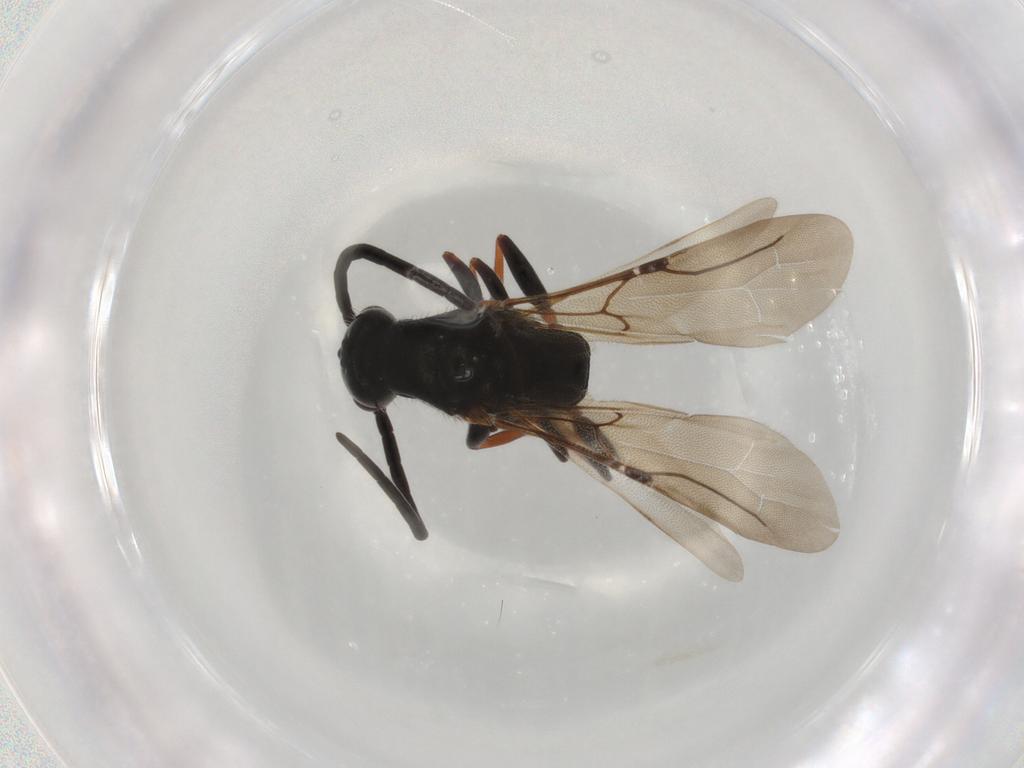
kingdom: Animalia
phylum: Arthropoda
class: Insecta
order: Hymenoptera
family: Bethylidae
